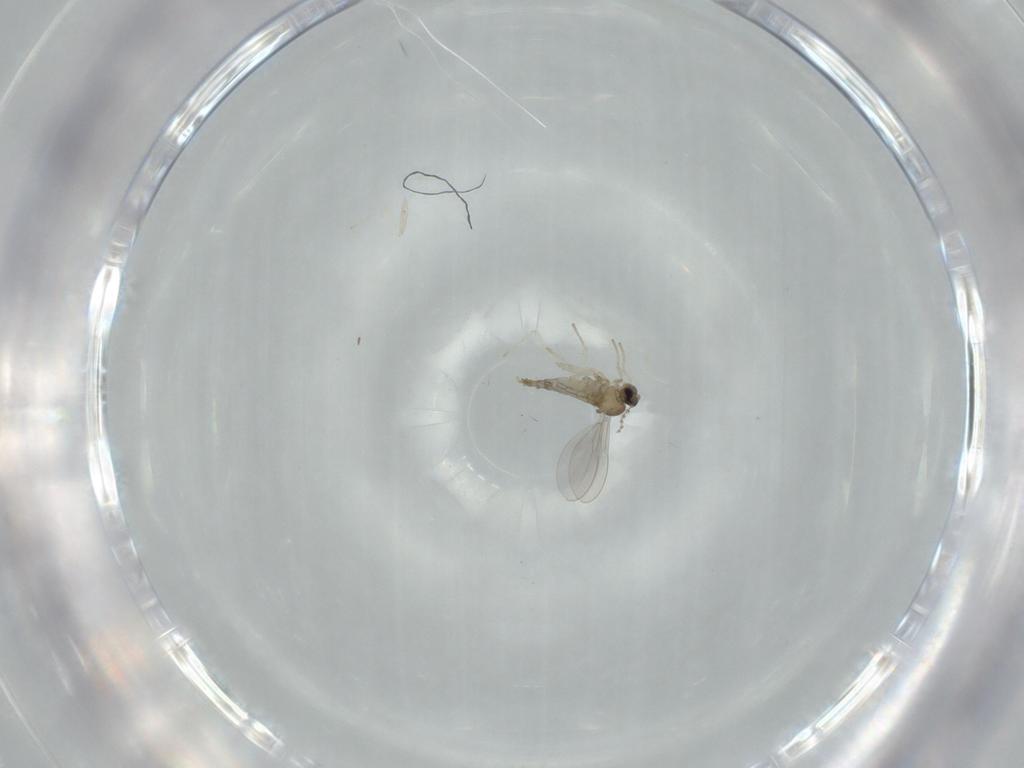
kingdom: Animalia
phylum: Arthropoda
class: Insecta
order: Diptera
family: Cecidomyiidae
